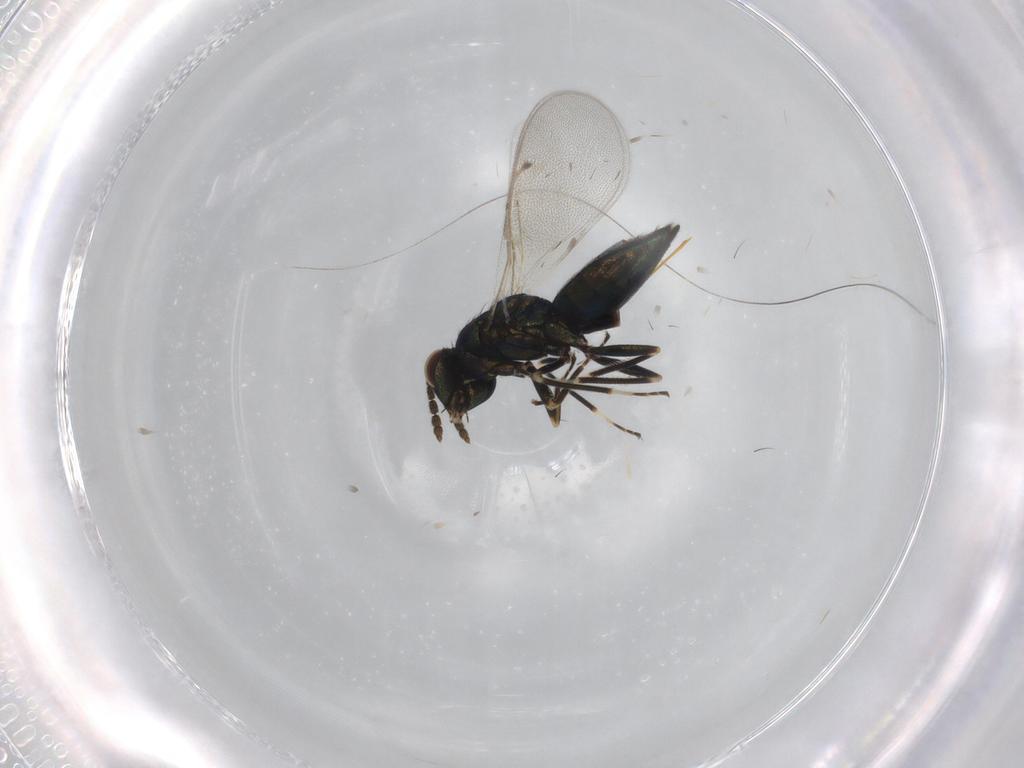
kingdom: Animalia
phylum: Arthropoda
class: Insecta
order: Hymenoptera
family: Eulophidae
